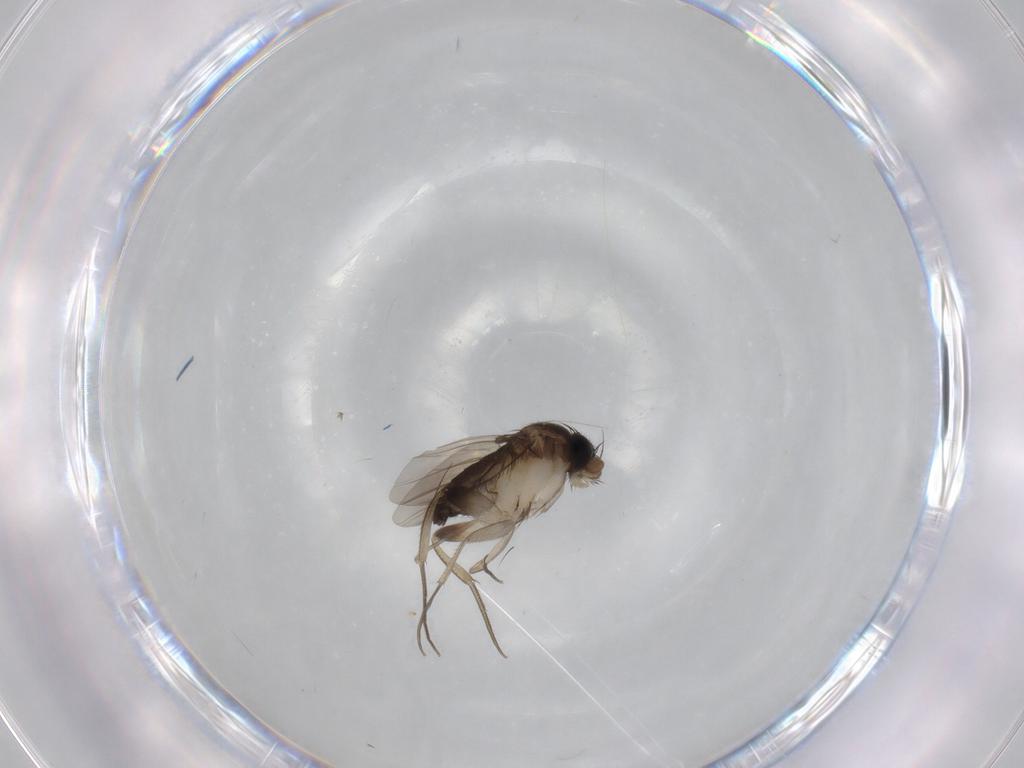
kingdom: Animalia
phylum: Arthropoda
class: Insecta
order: Diptera
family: Phoridae
